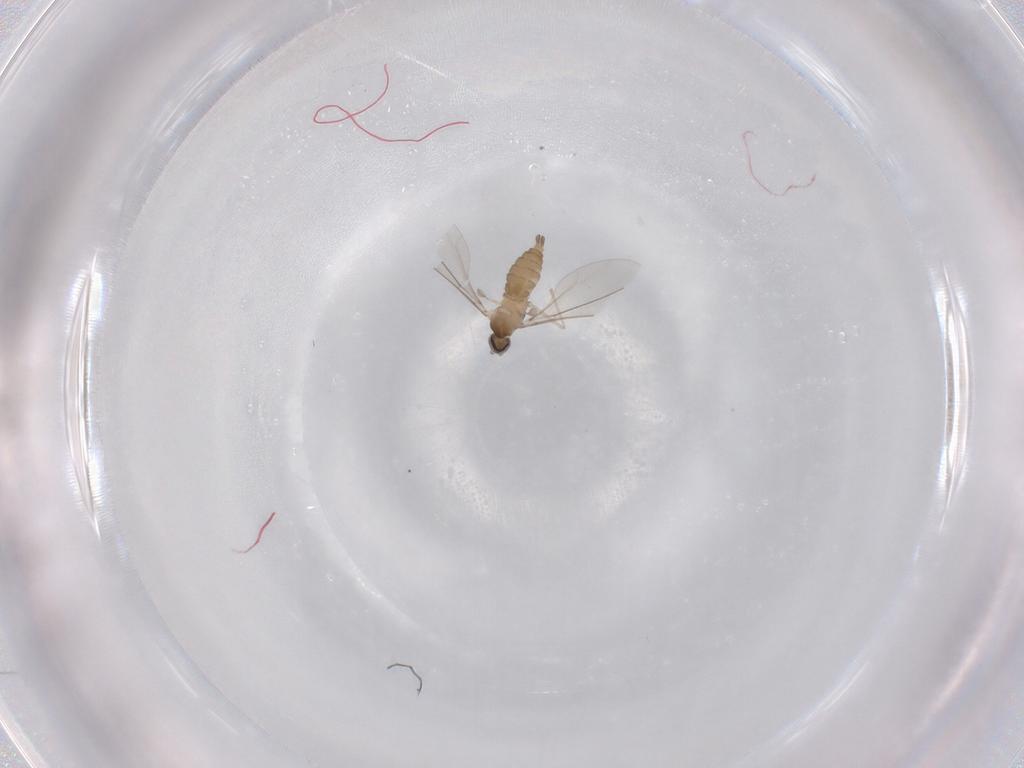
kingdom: Animalia
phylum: Arthropoda
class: Insecta
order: Diptera
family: Cecidomyiidae
